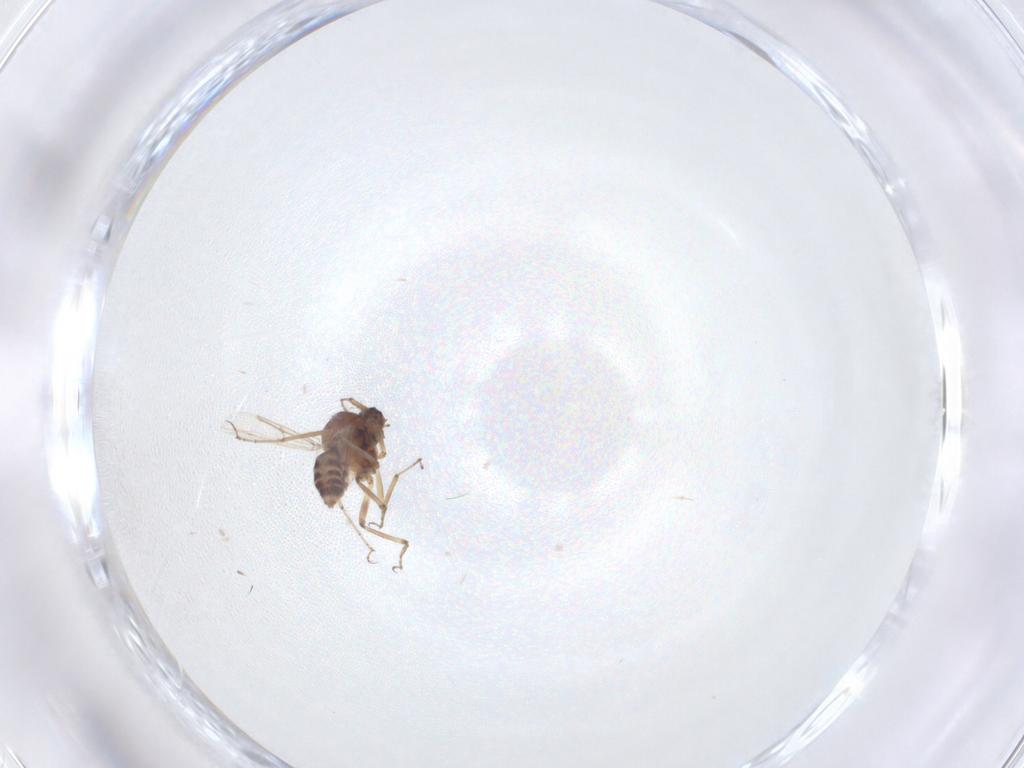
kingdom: Animalia
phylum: Arthropoda
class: Insecta
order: Diptera
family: Ceratopogonidae
